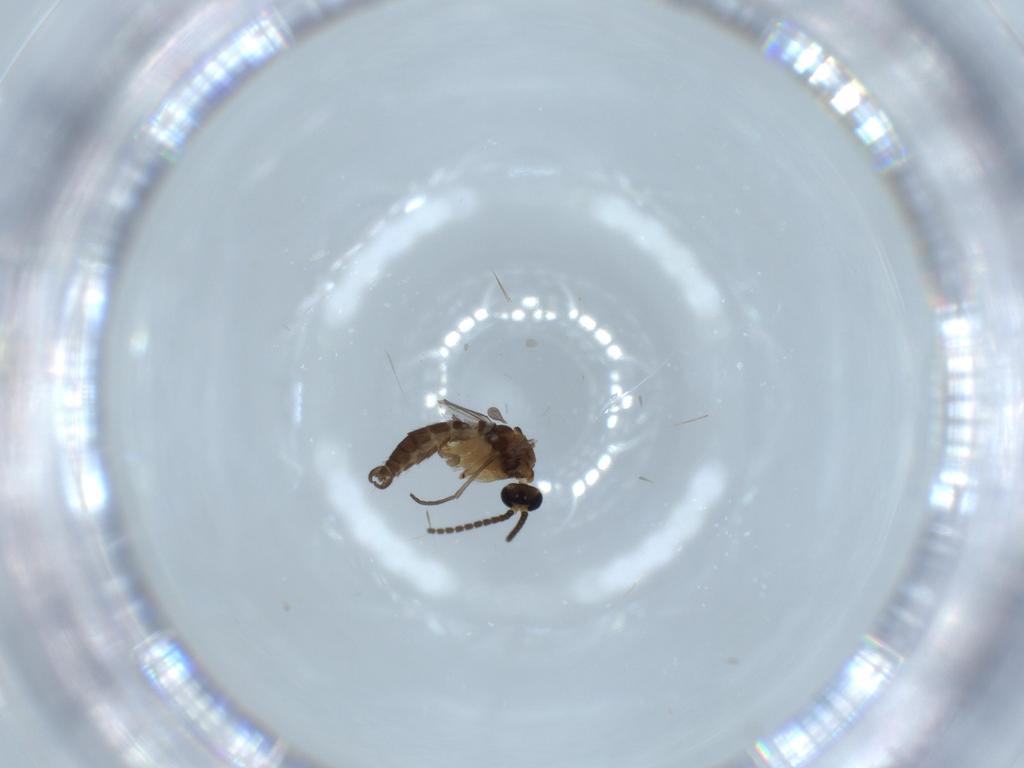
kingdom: Animalia
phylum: Arthropoda
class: Insecta
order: Diptera
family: Sciaridae
